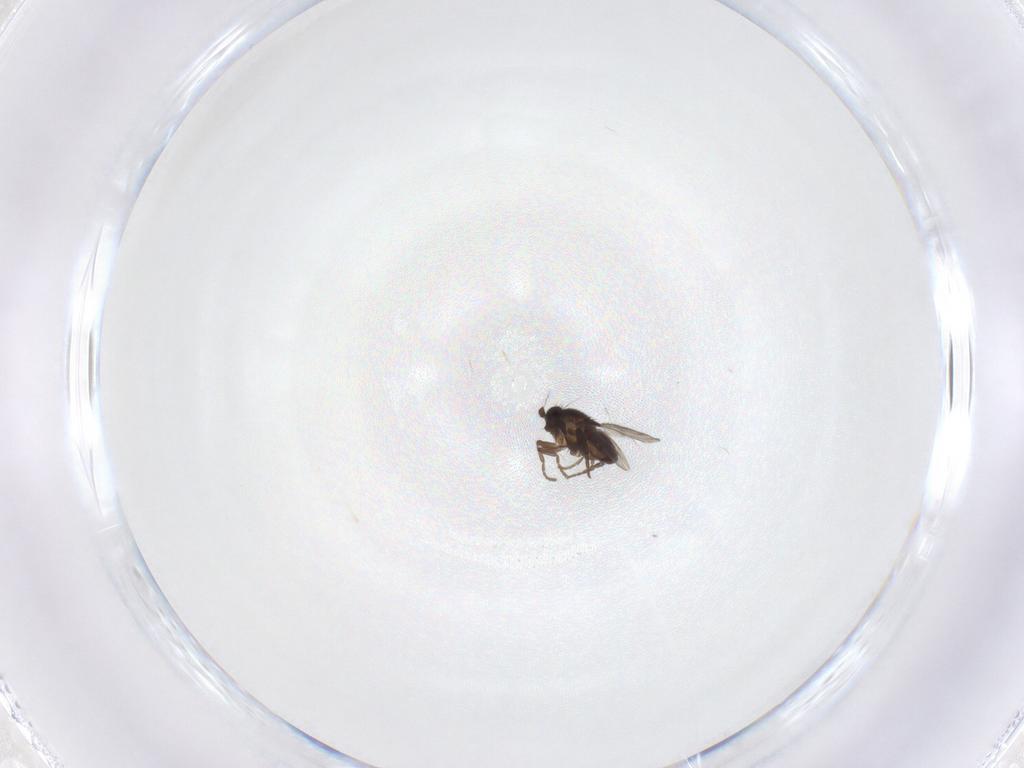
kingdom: Animalia
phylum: Arthropoda
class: Insecta
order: Diptera
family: Psychodidae
